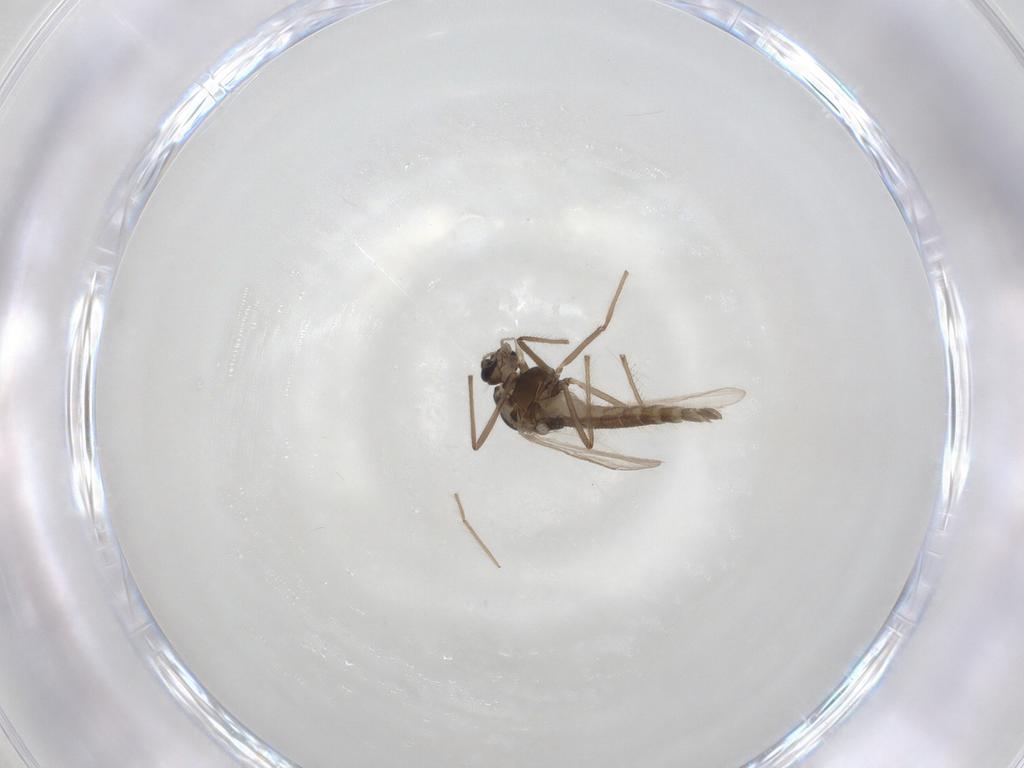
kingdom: Animalia
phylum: Arthropoda
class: Insecta
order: Diptera
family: Chironomidae
